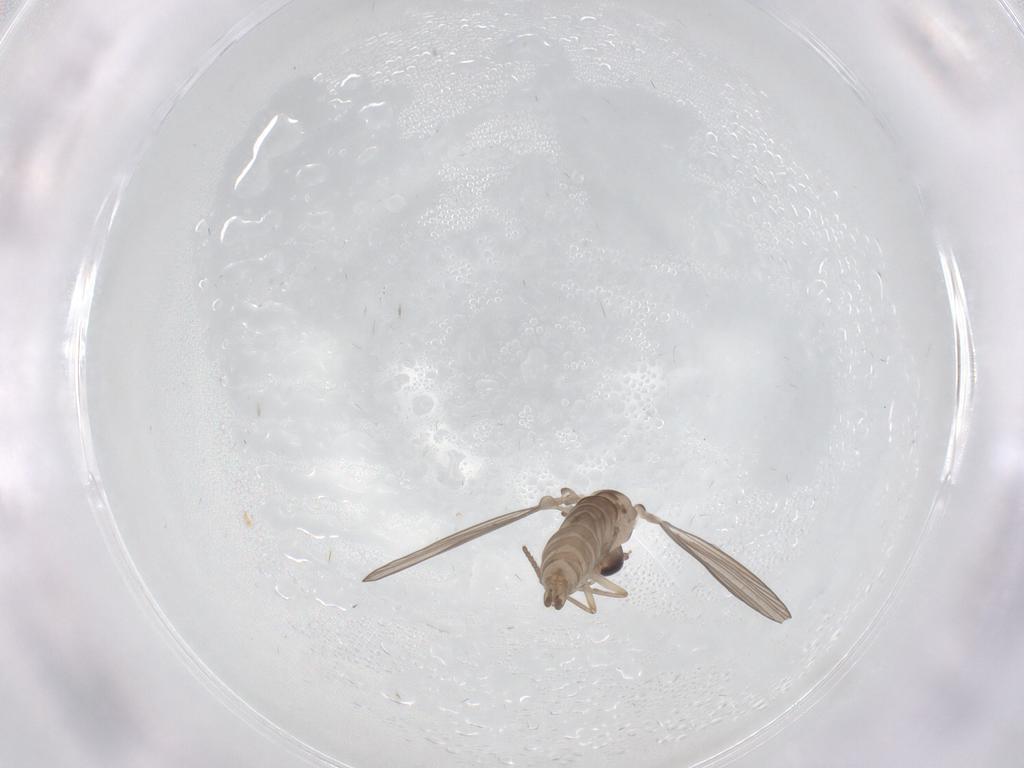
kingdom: Animalia
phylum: Arthropoda
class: Insecta
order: Diptera
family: Psychodidae
